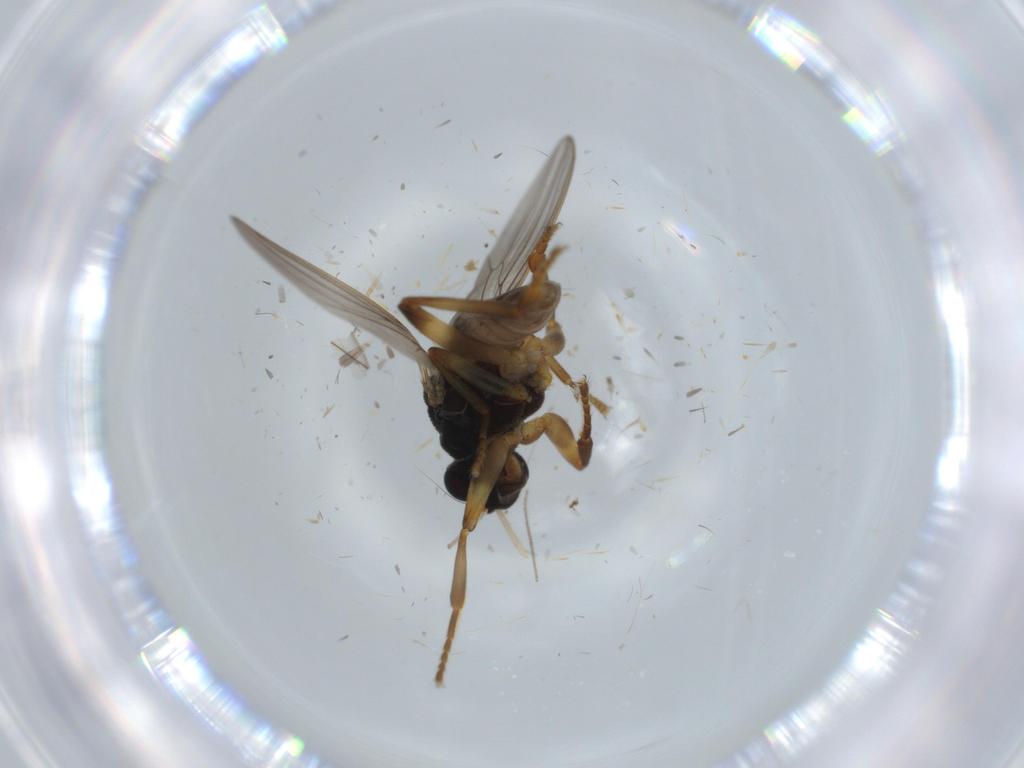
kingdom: Animalia
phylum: Arthropoda
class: Insecta
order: Diptera
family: Sphaeroceridae
